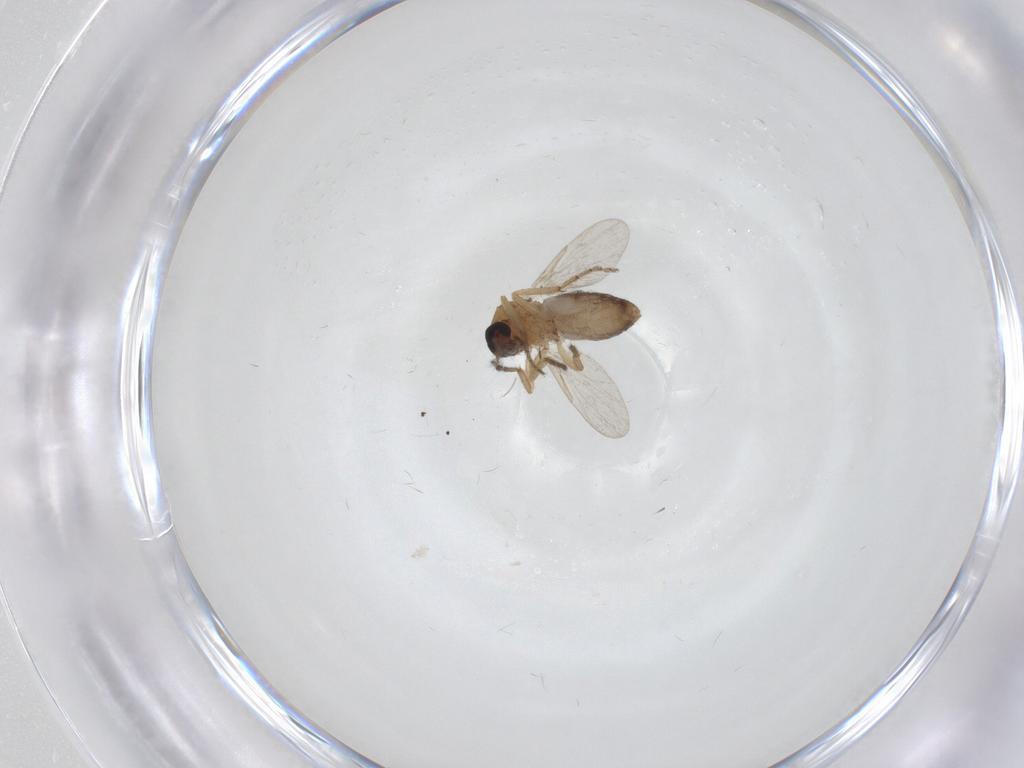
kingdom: Animalia
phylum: Arthropoda
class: Insecta
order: Diptera
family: Ceratopogonidae
